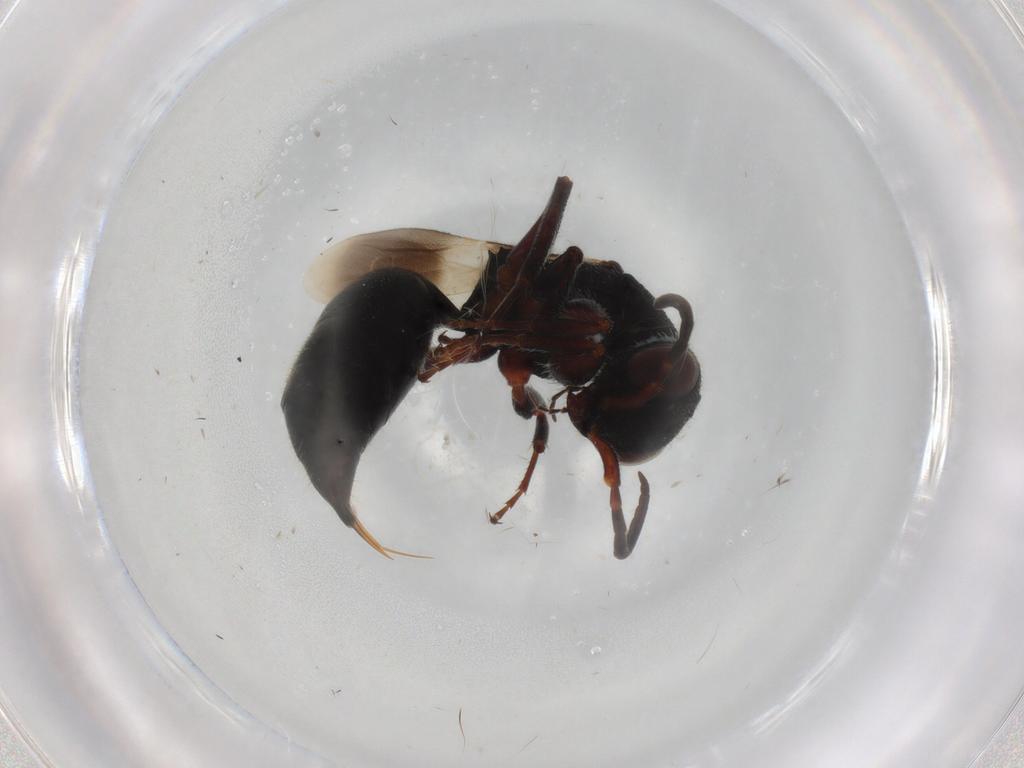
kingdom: Animalia
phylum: Arthropoda
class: Insecta
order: Hymenoptera
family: Formicidae
